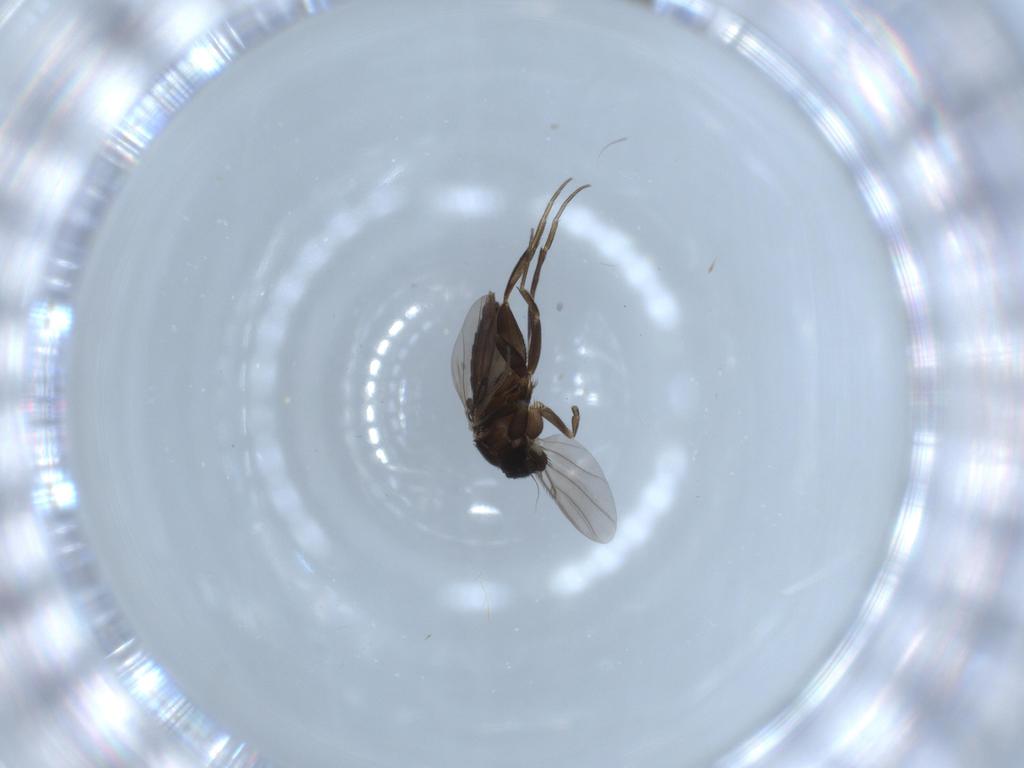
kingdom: Animalia
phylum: Arthropoda
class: Insecta
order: Diptera
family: Phoridae
